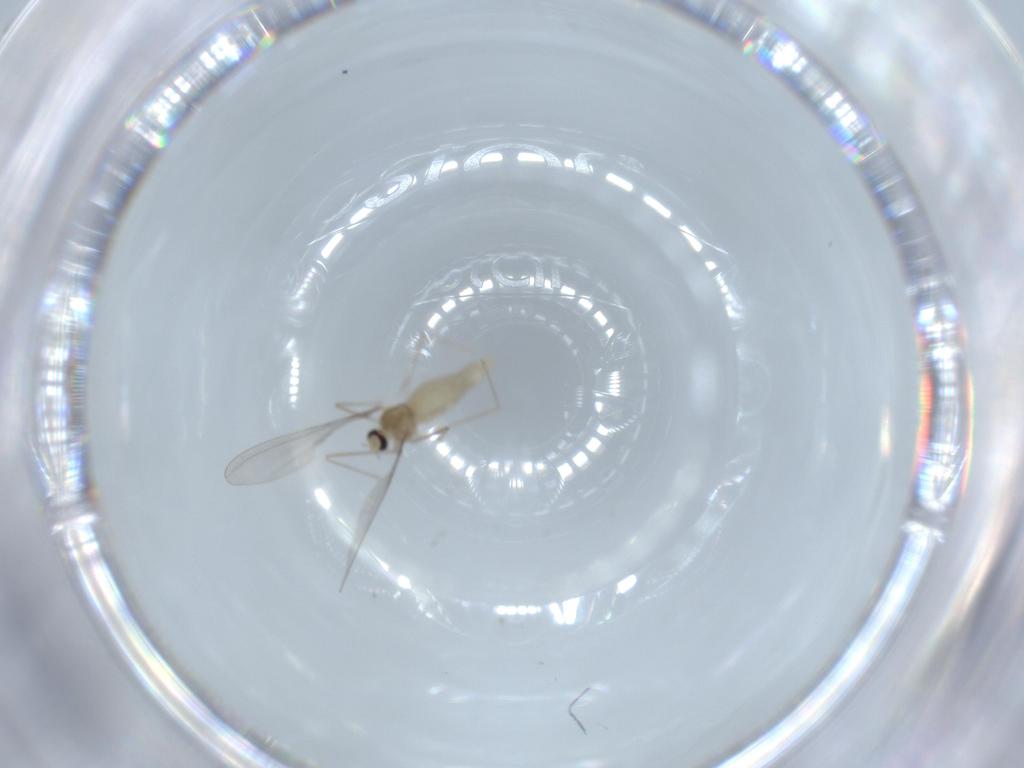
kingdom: Animalia
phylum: Arthropoda
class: Insecta
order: Diptera
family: Cecidomyiidae
